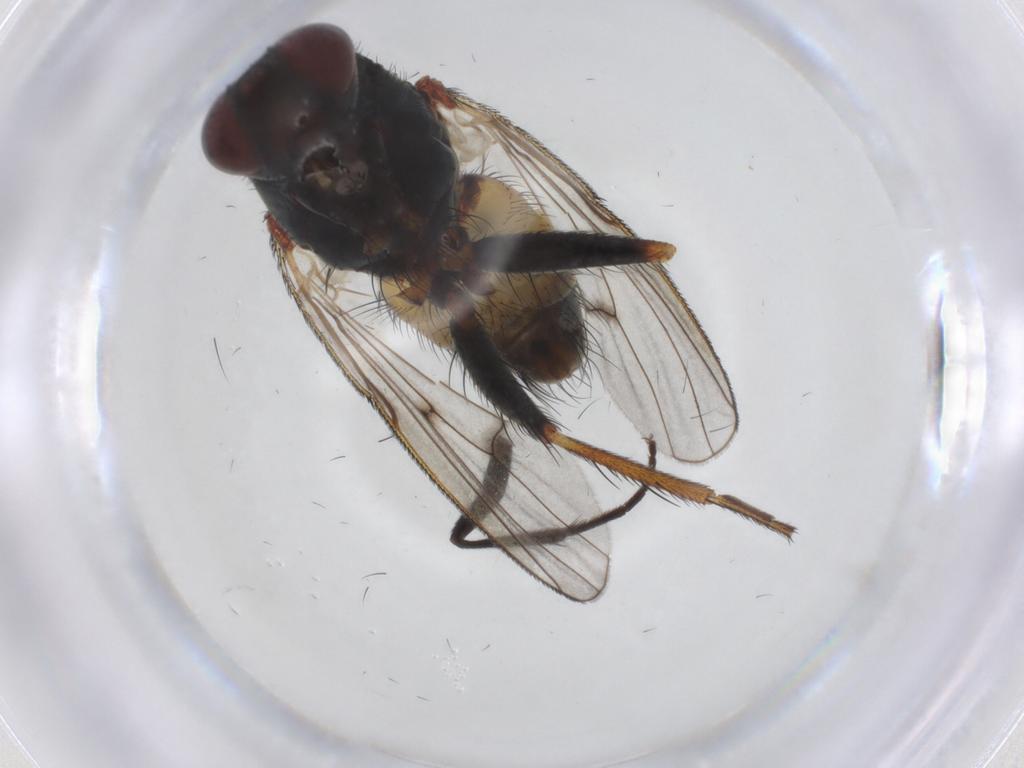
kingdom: Animalia
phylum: Arthropoda
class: Insecta
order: Diptera
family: Muscidae
